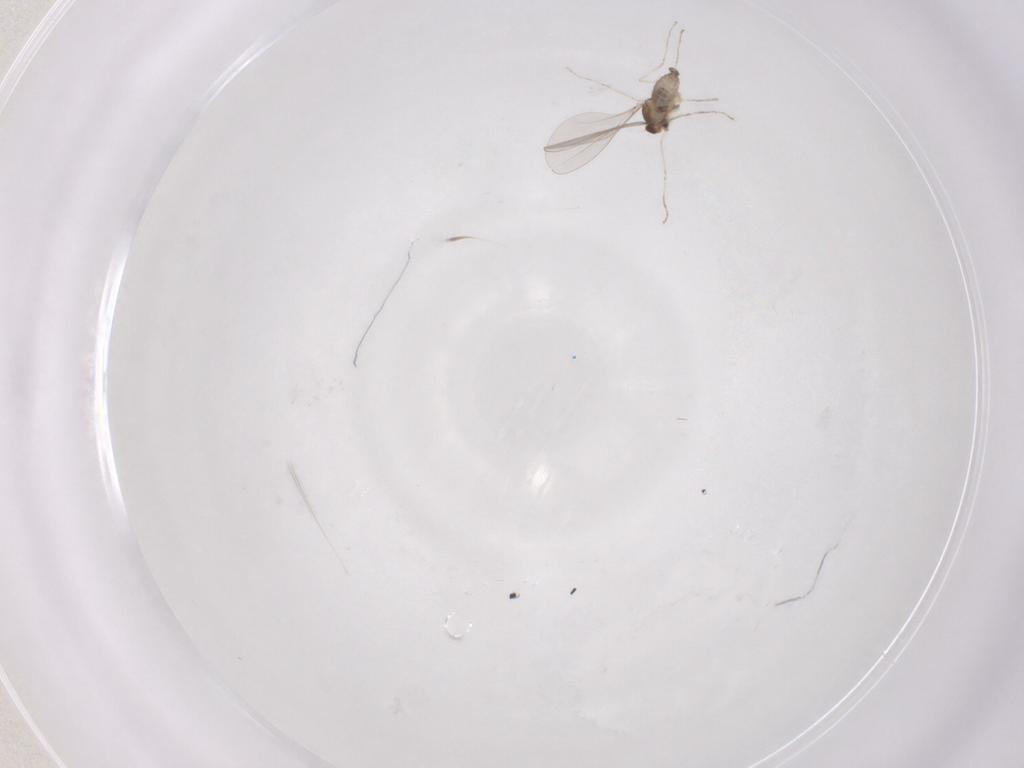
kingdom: Animalia
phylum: Arthropoda
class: Insecta
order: Diptera
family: Cecidomyiidae
